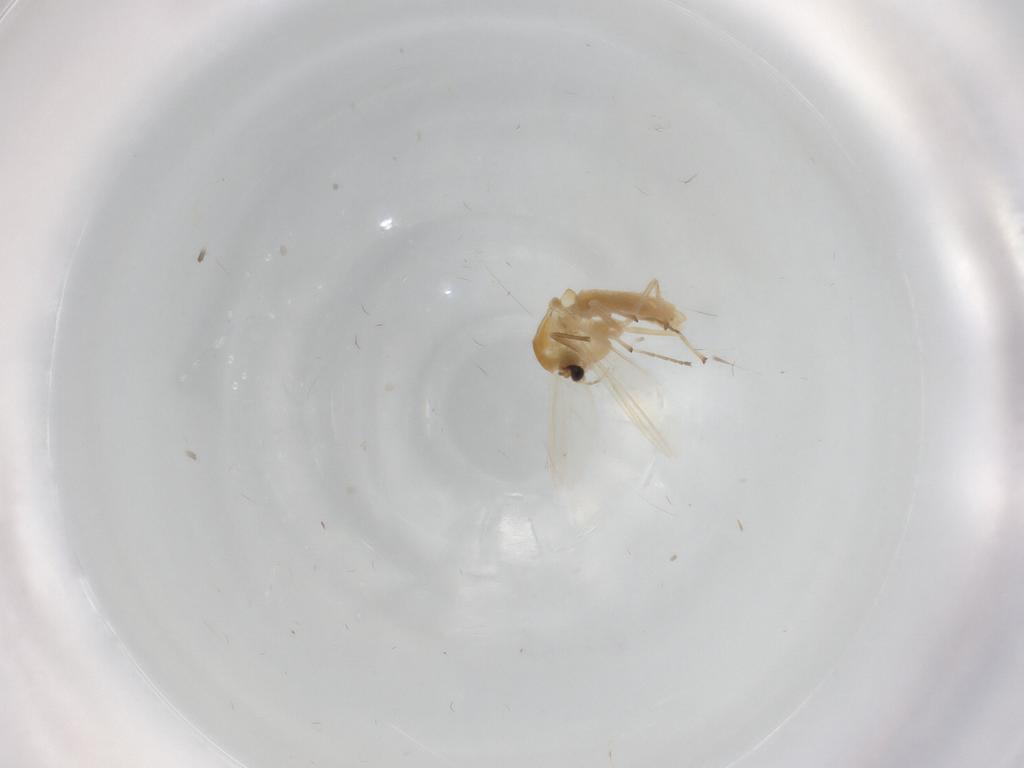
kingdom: Animalia
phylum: Arthropoda
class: Insecta
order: Diptera
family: Chironomidae
